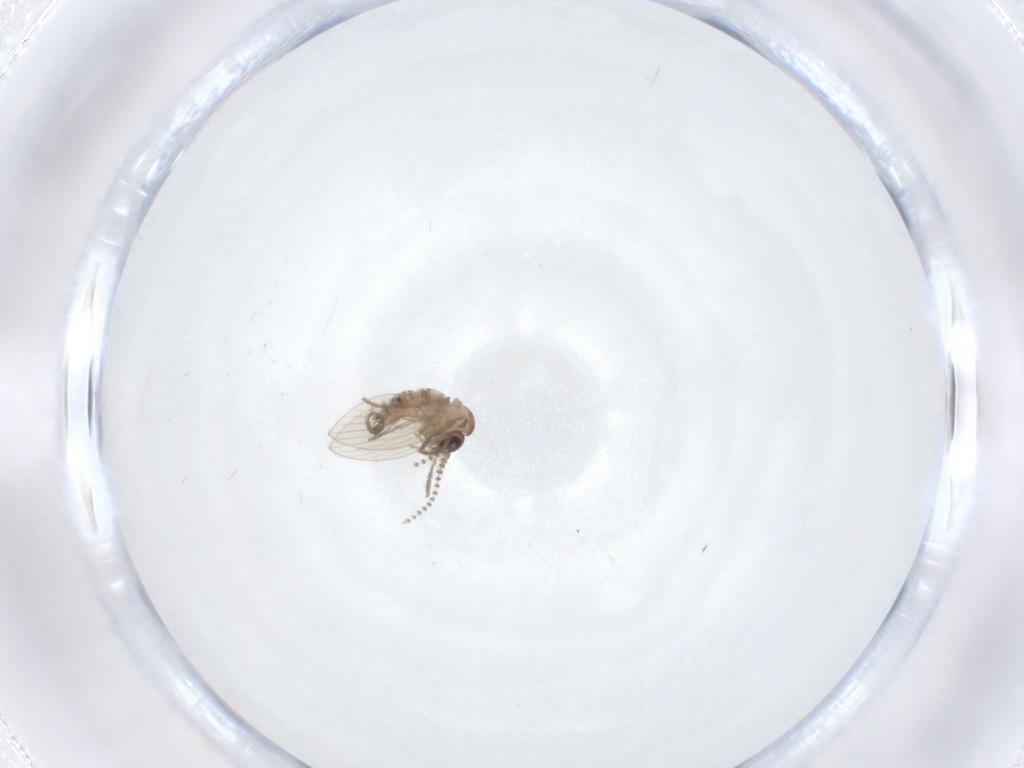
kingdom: Animalia
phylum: Arthropoda
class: Insecta
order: Diptera
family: Psychodidae
